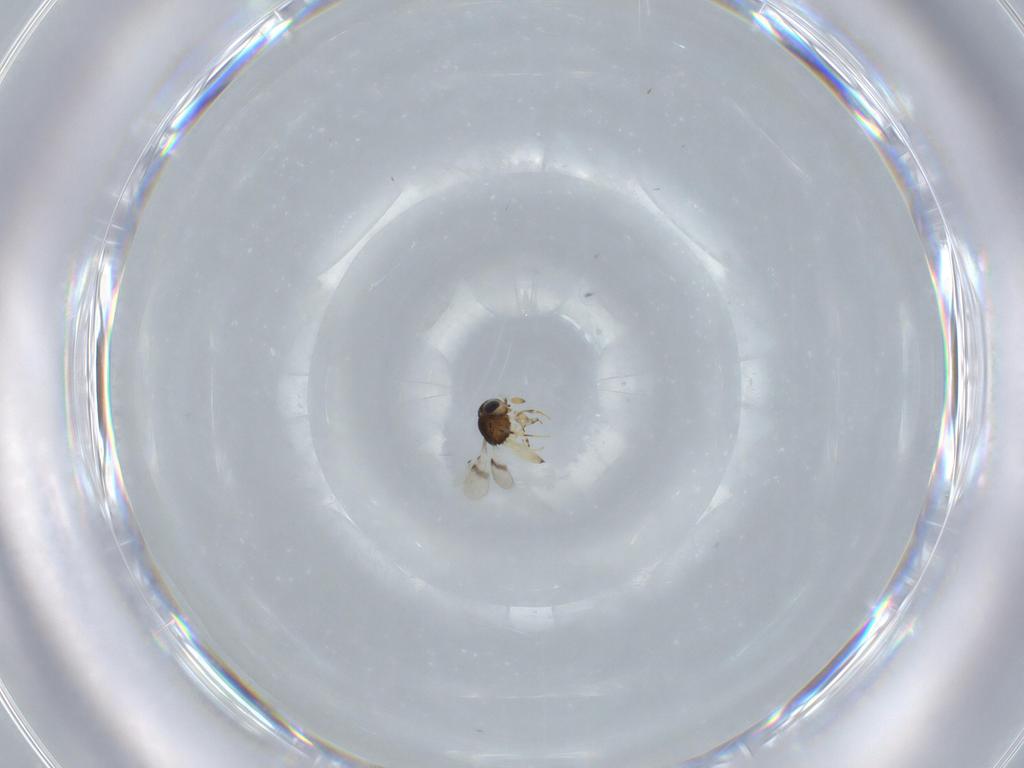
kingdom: Animalia
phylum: Arthropoda
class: Insecta
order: Hymenoptera
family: Scelionidae
